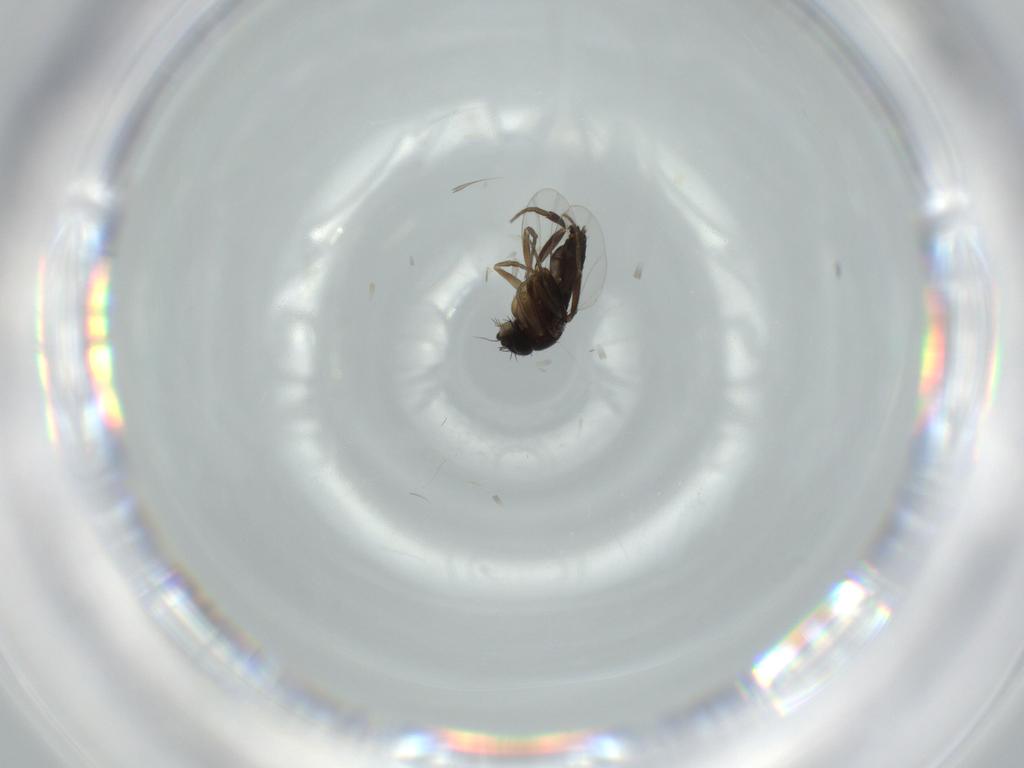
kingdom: Animalia
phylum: Arthropoda
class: Insecta
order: Diptera
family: Phoridae
